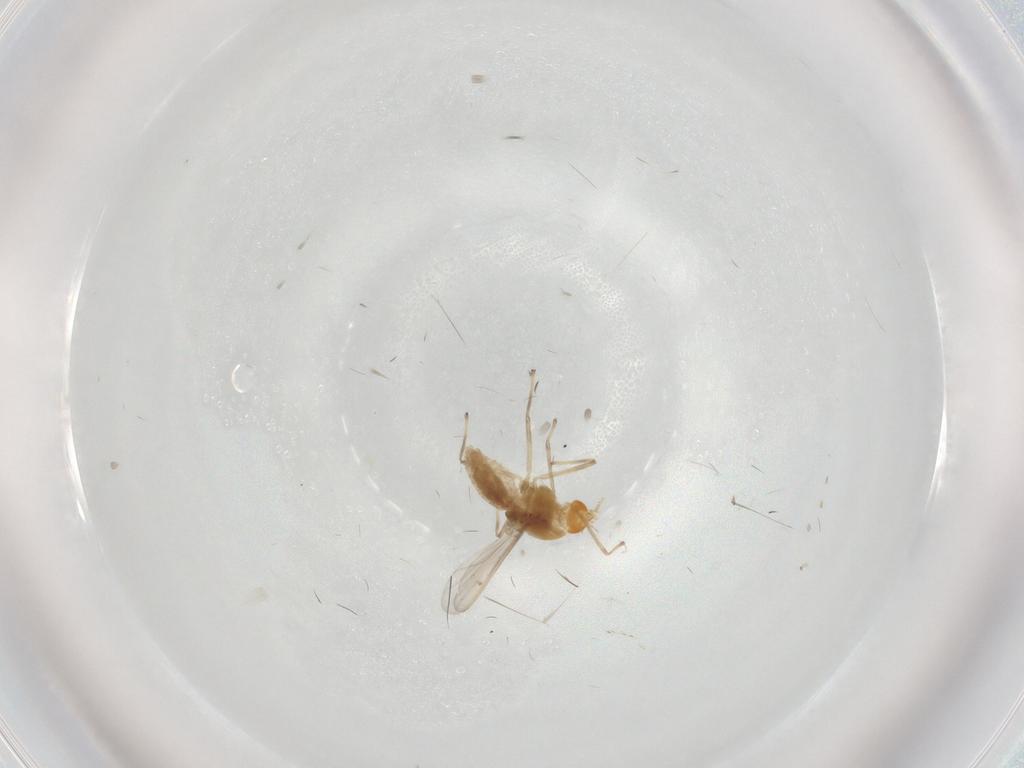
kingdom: Animalia
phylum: Arthropoda
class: Insecta
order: Diptera
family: Chironomidae
